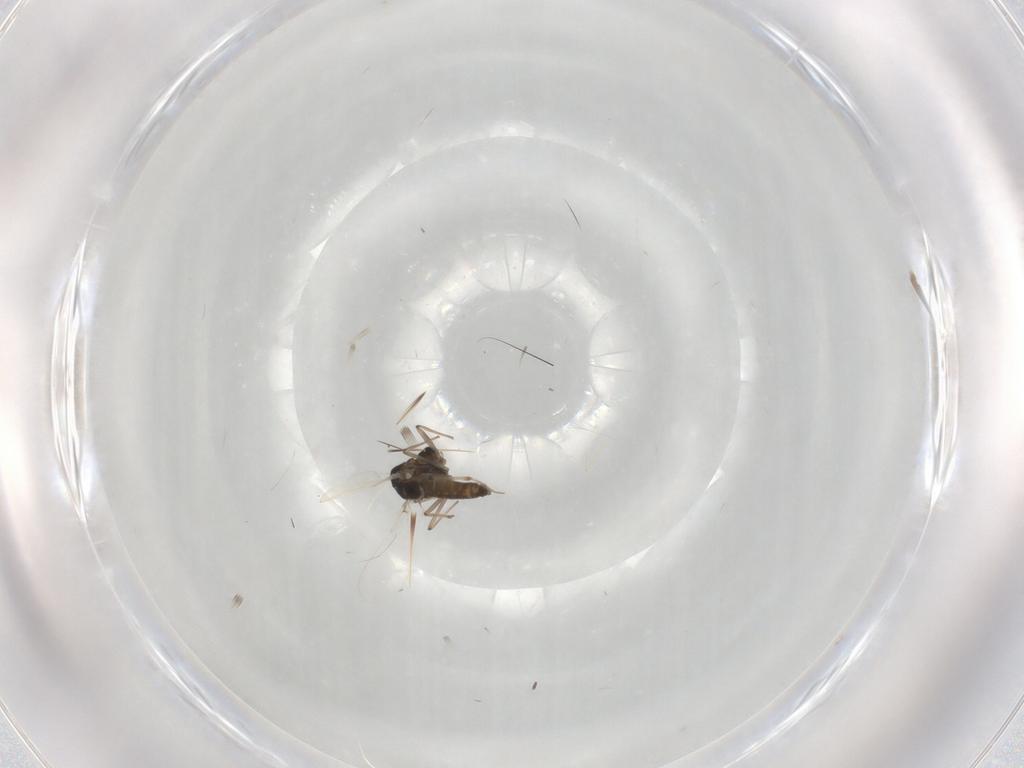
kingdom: Animalia
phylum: Arthropoda
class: Insecta
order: Diptera
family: Chironomidae
